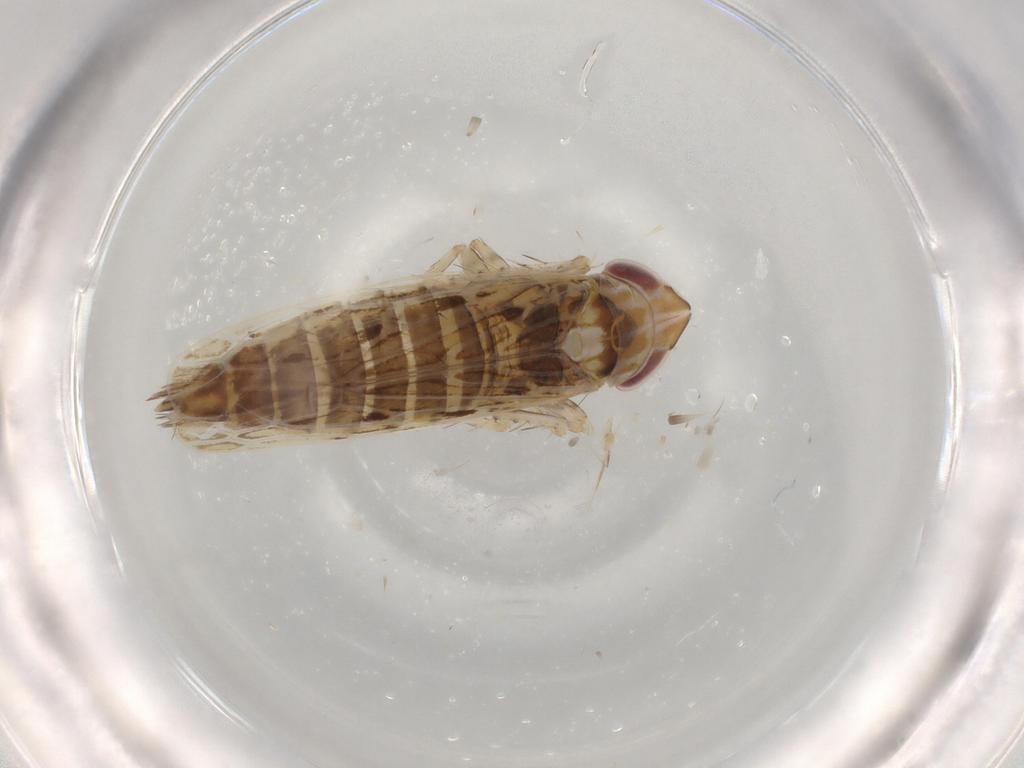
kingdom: Animalia
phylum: Arthropoda
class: Insecta
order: Hemiptera
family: Cicadellidae
